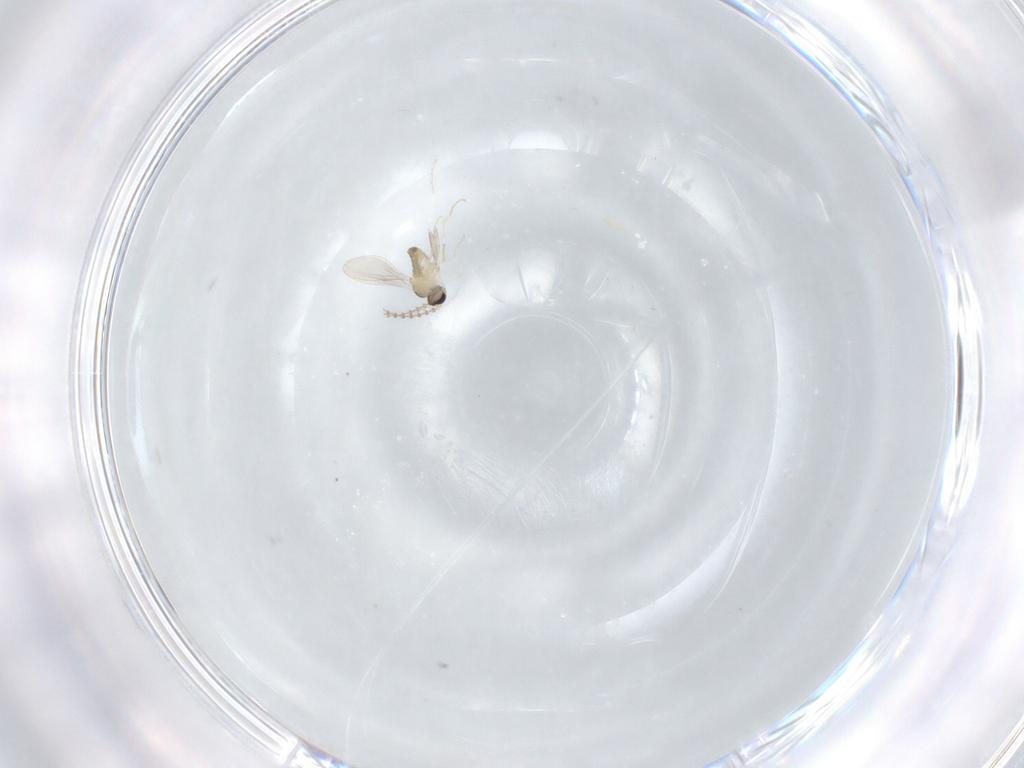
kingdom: Animalia
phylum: Arthropoda
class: Insecta
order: Diptera
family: Cecidomyiidae
